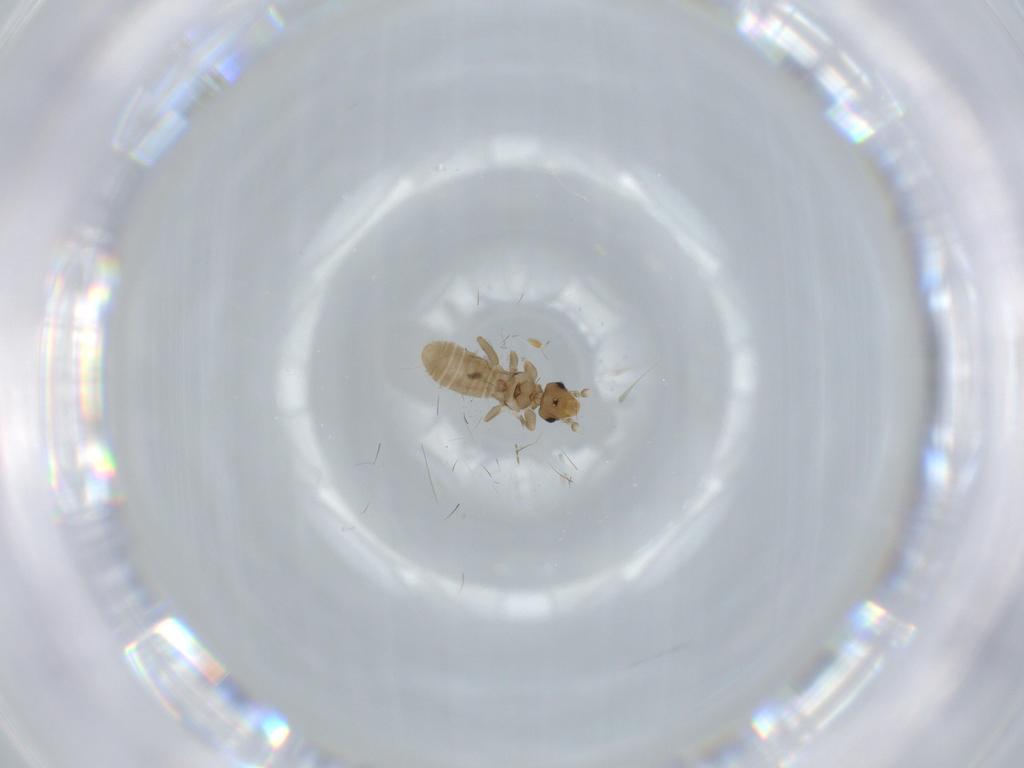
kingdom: Animalia
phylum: Arthropoda
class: Insecta
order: Psocodea
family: Liposcelididae
